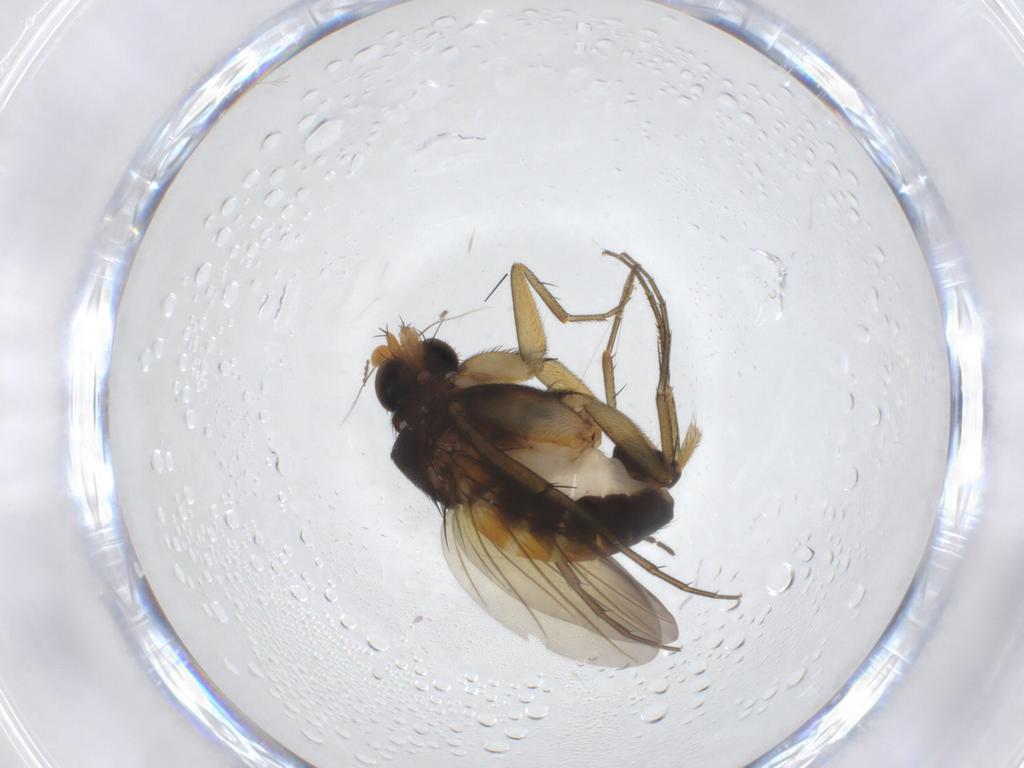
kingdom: Animalia
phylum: Arthropoda
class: Insecta
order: Diptera
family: Phoridae
